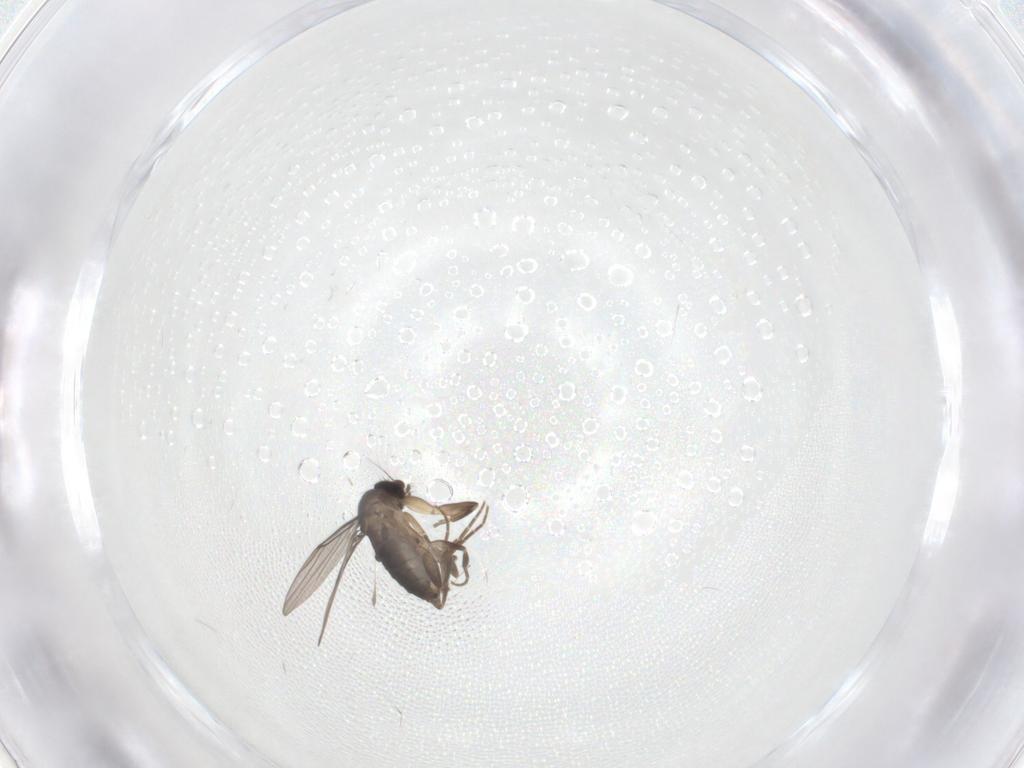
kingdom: Animalia
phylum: Arthropoda
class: Insecta
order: Diptera
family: Phoridae
